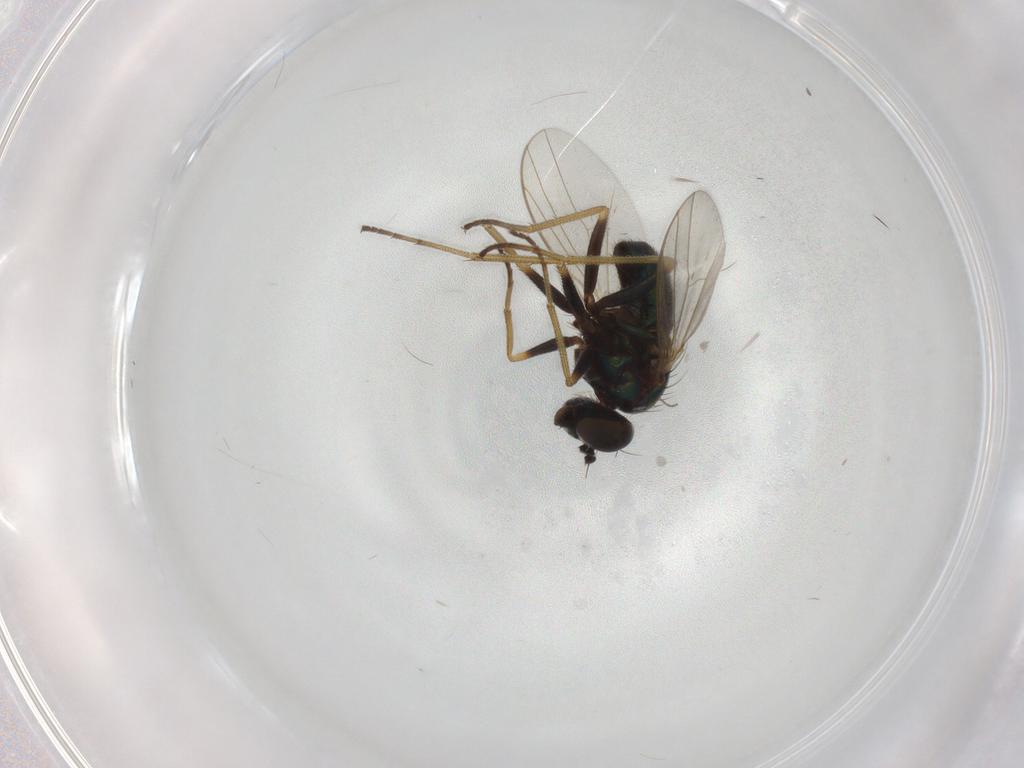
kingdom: Animalia
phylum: Arthropoda
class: Insecta
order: Diptera
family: Dolichopodidae
